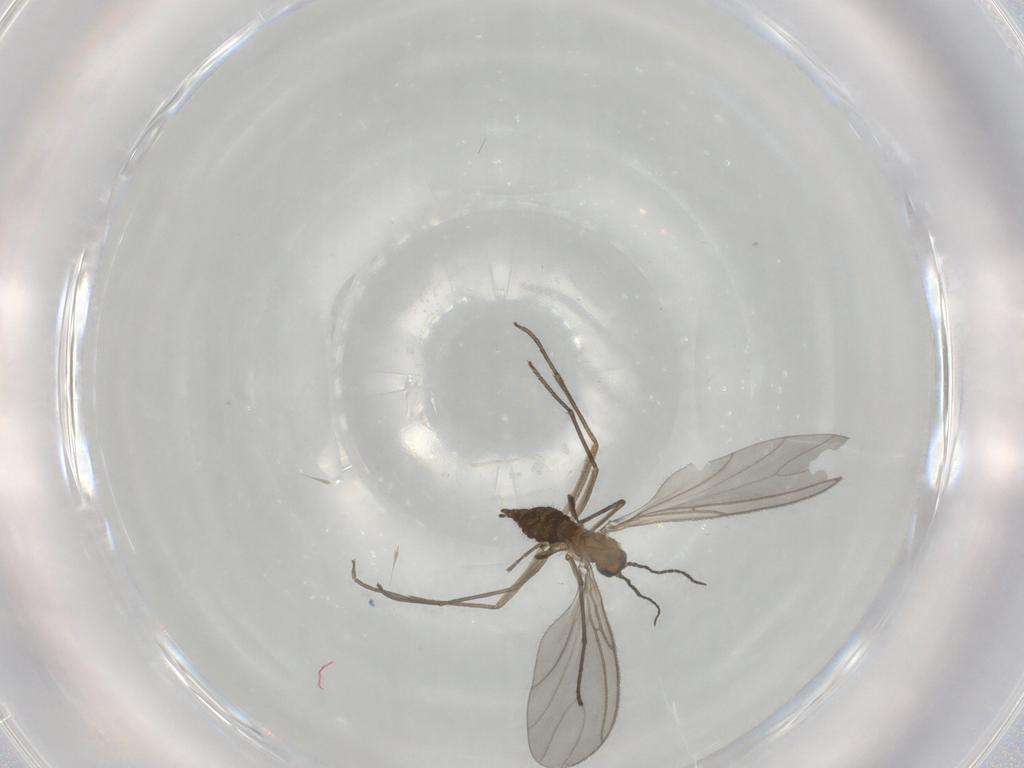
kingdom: Animalia
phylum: Arthropoda
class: Insecta
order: Diptera
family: Sciaridae
